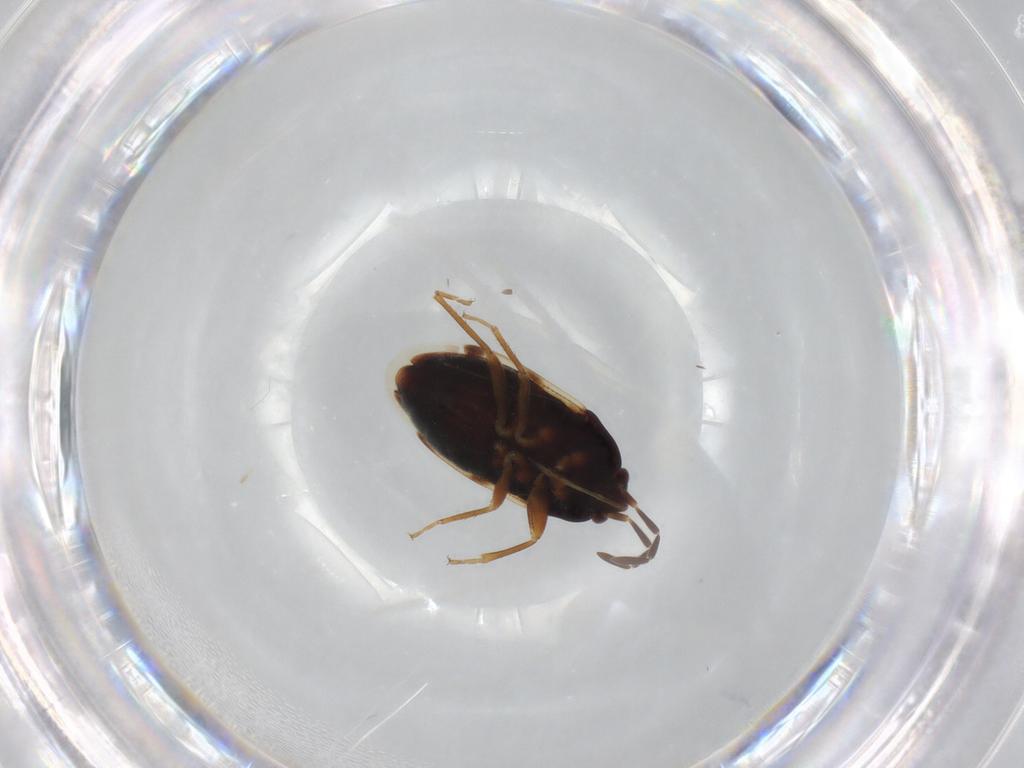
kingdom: Animalia
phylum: Arthropoda
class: Insecta
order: Hemiptera
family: Rhyparochromidae
